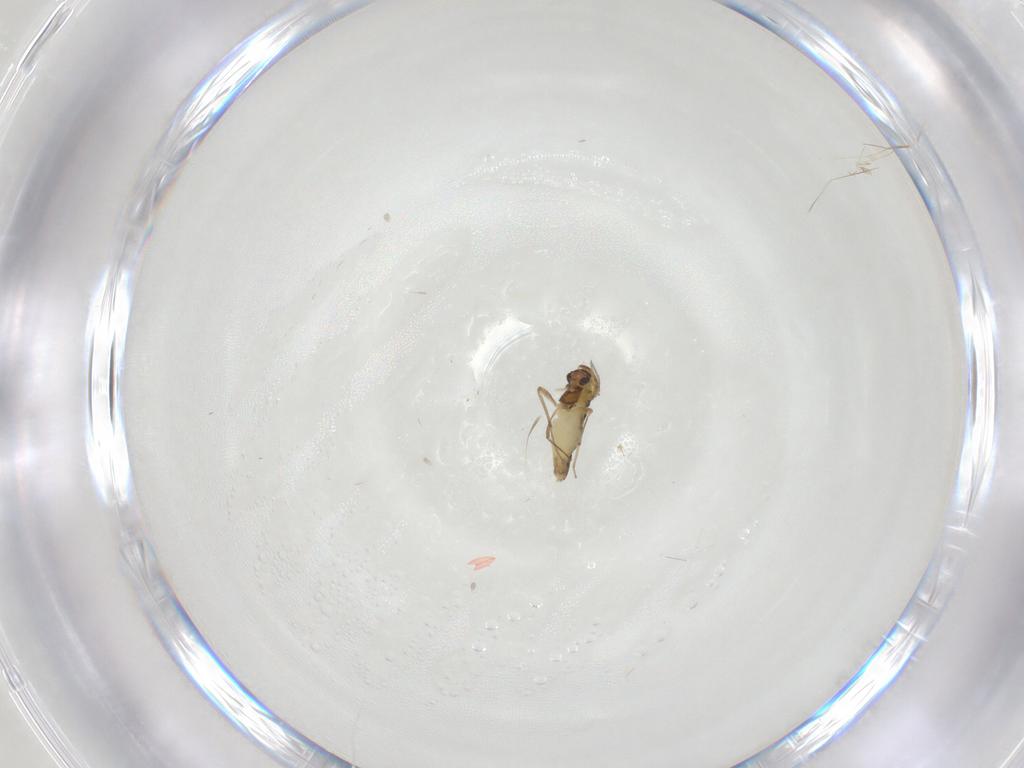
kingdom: Animalia
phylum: Arthropoda
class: Insecta
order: Diptera
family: Chironomidae
